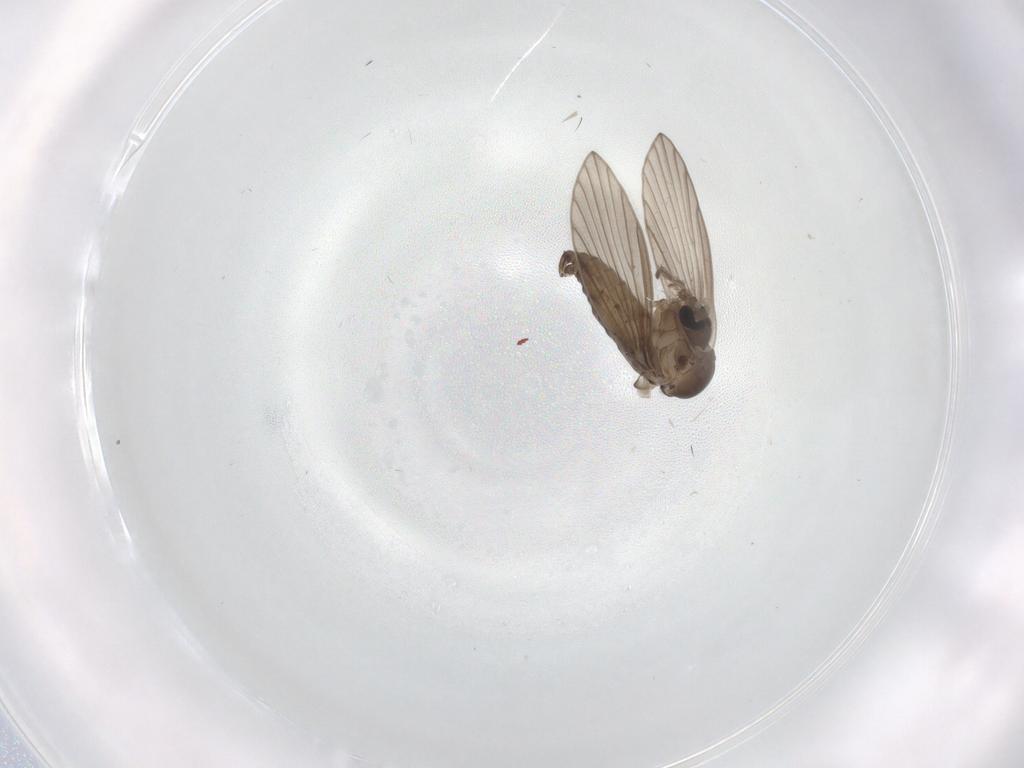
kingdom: Animalia
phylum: Arthropoda
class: Insecta
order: Diptera
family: Psychodidae
